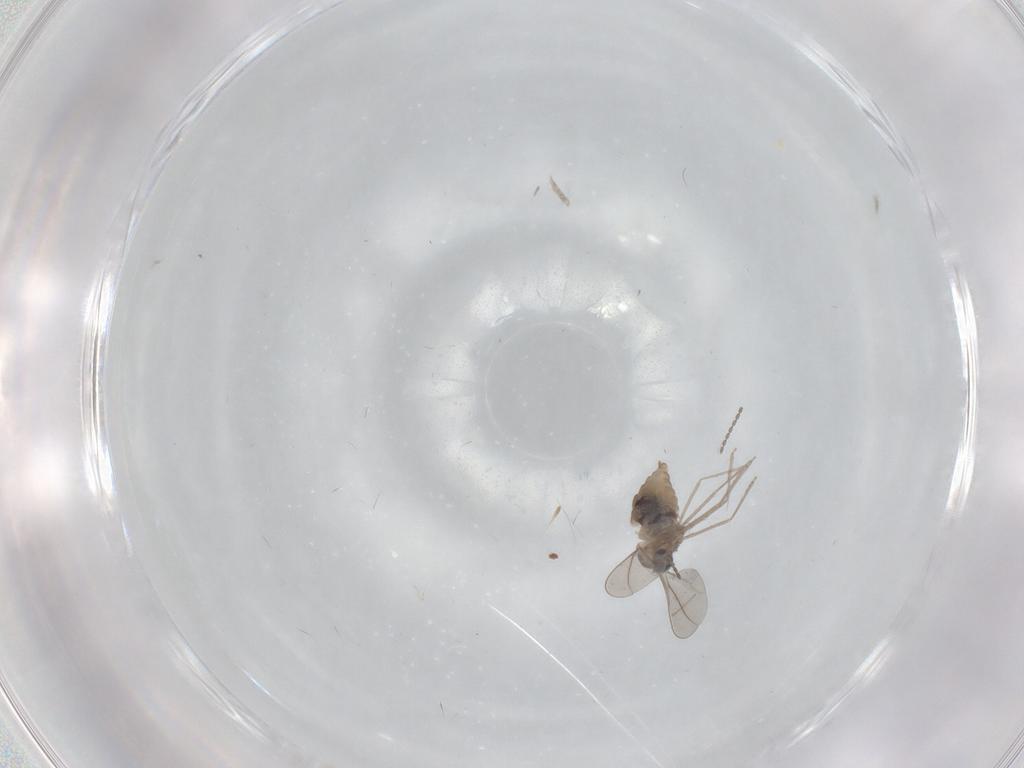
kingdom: Animalia
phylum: Arthropoda
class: Insecta
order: Diptera
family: Cecidomyiidae
